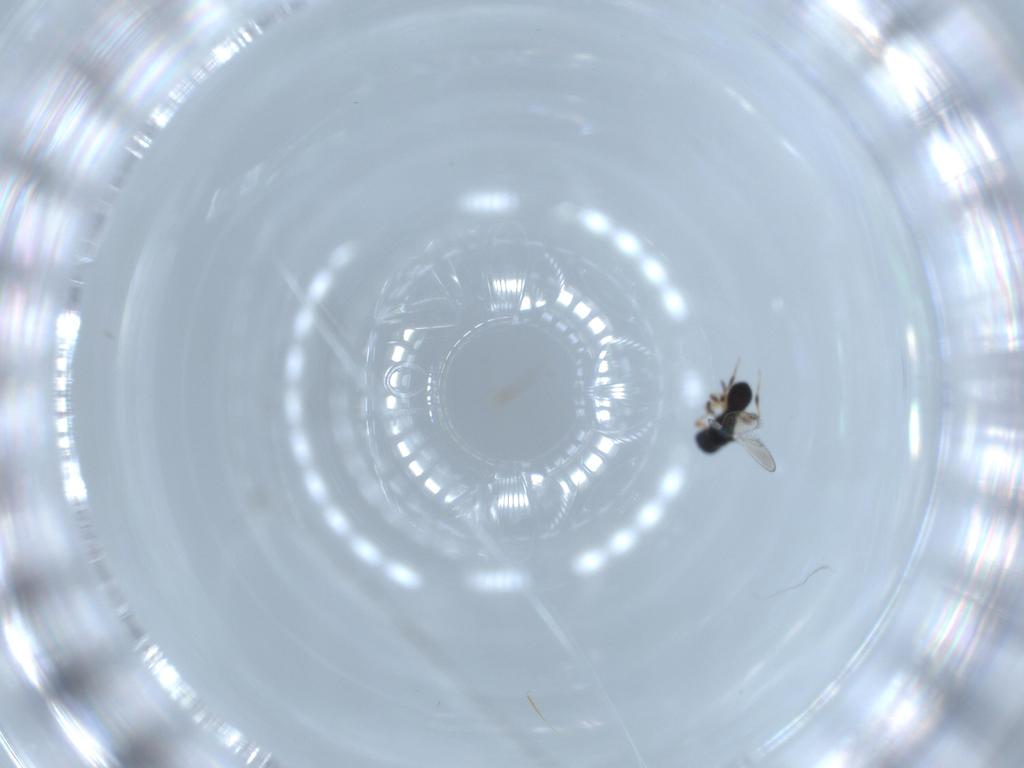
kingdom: Animalia
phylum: Arthropoda
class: Insecta
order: Hymenoptera
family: Platygastridae
